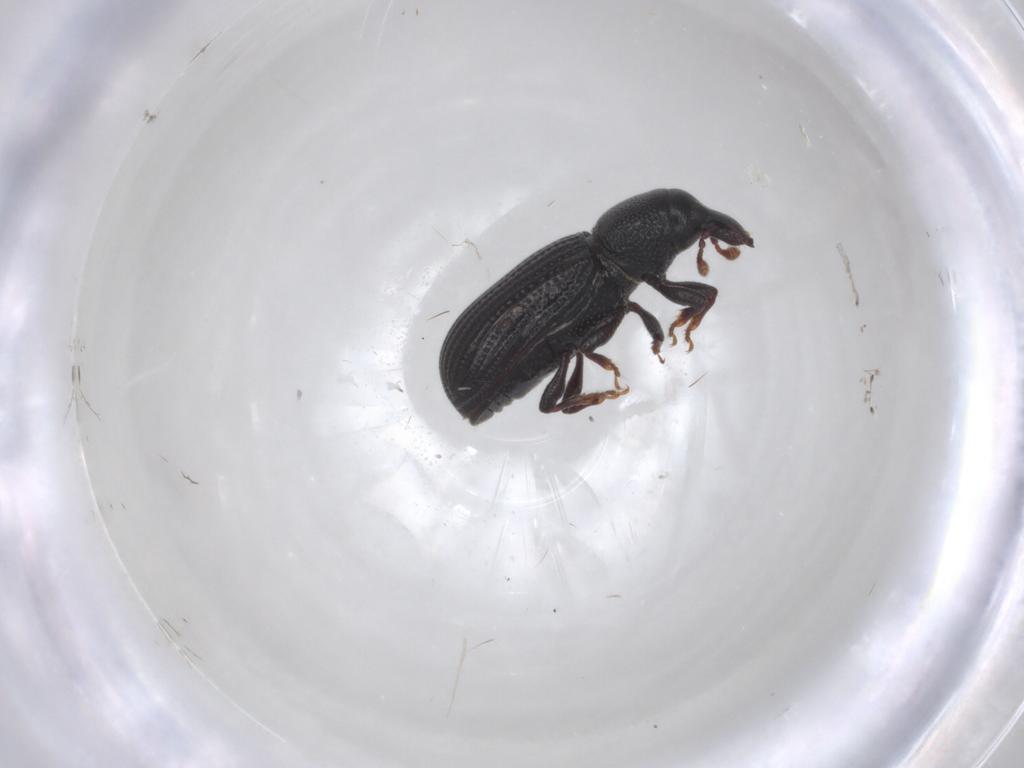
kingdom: Animalia
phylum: Arthropoda
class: Insecta
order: Coleoptera
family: Curculionidae
